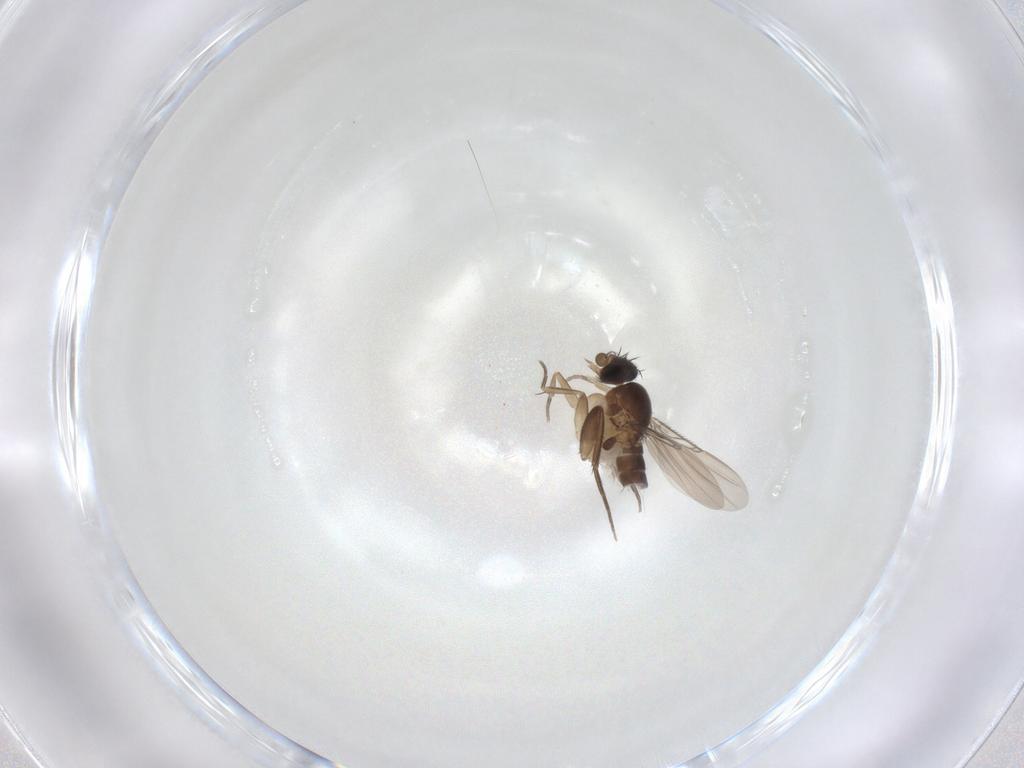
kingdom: Animalia
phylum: Arthropoda
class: Insecta
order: Diptera
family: Phoridae
